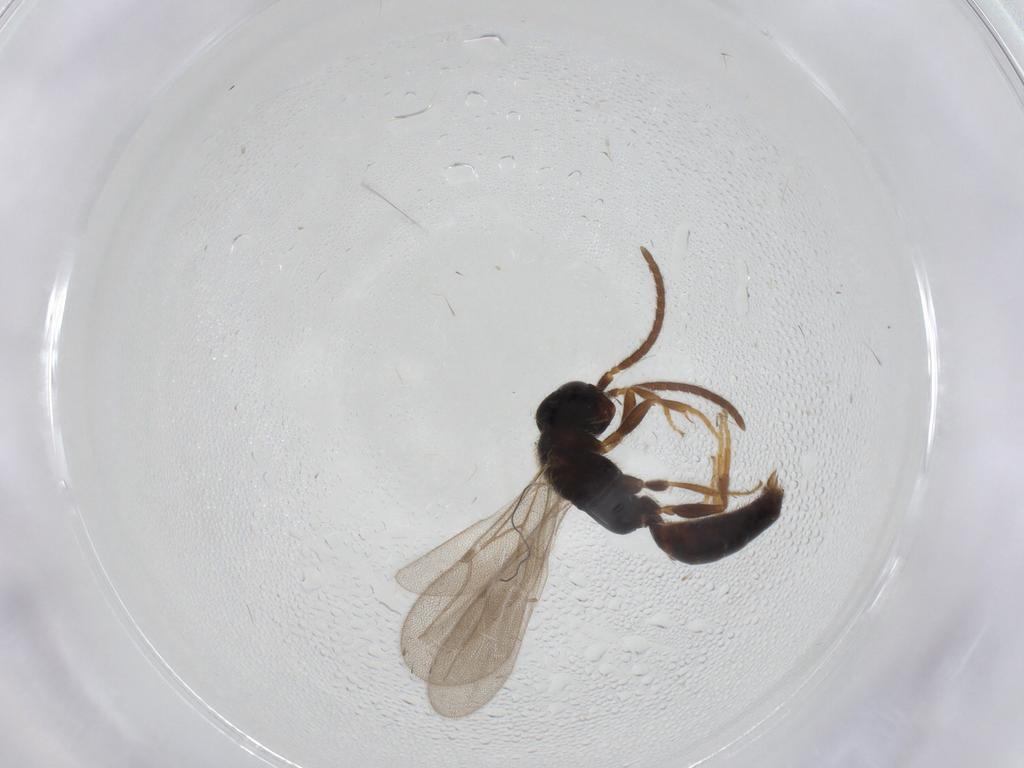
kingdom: Animalia
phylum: Arthropoda
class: Insecta
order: Hymenoptera
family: Bethylidae
